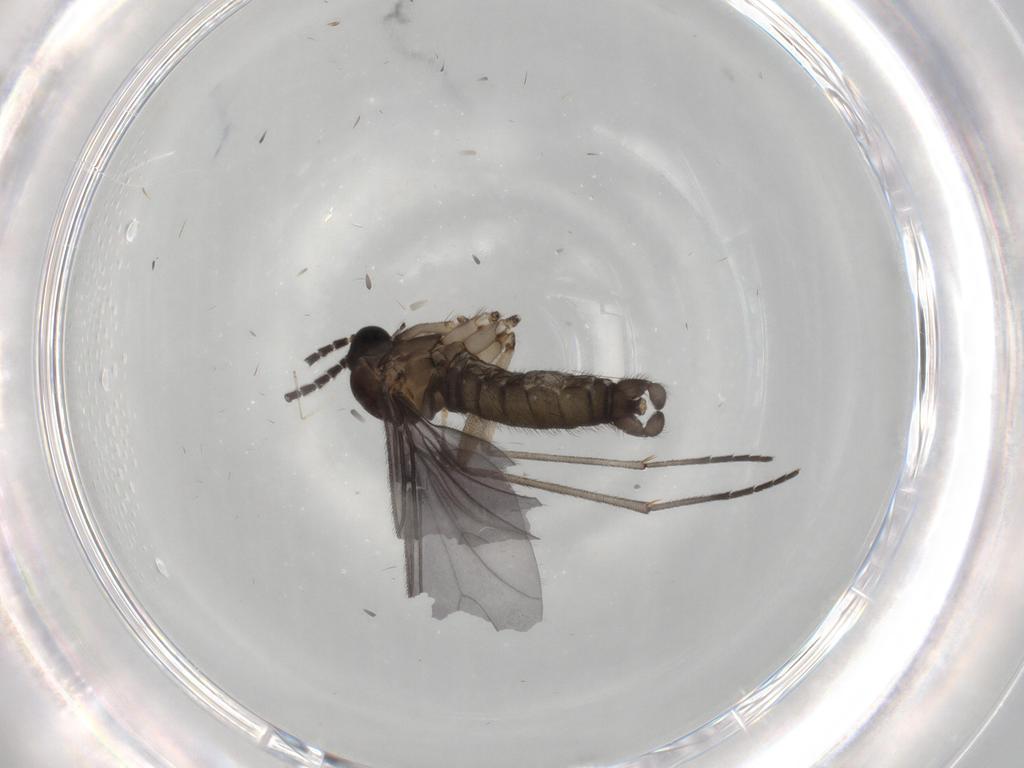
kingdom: Animalia
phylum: Arthropoda
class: Insecta
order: Diptera
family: Sciaridae
